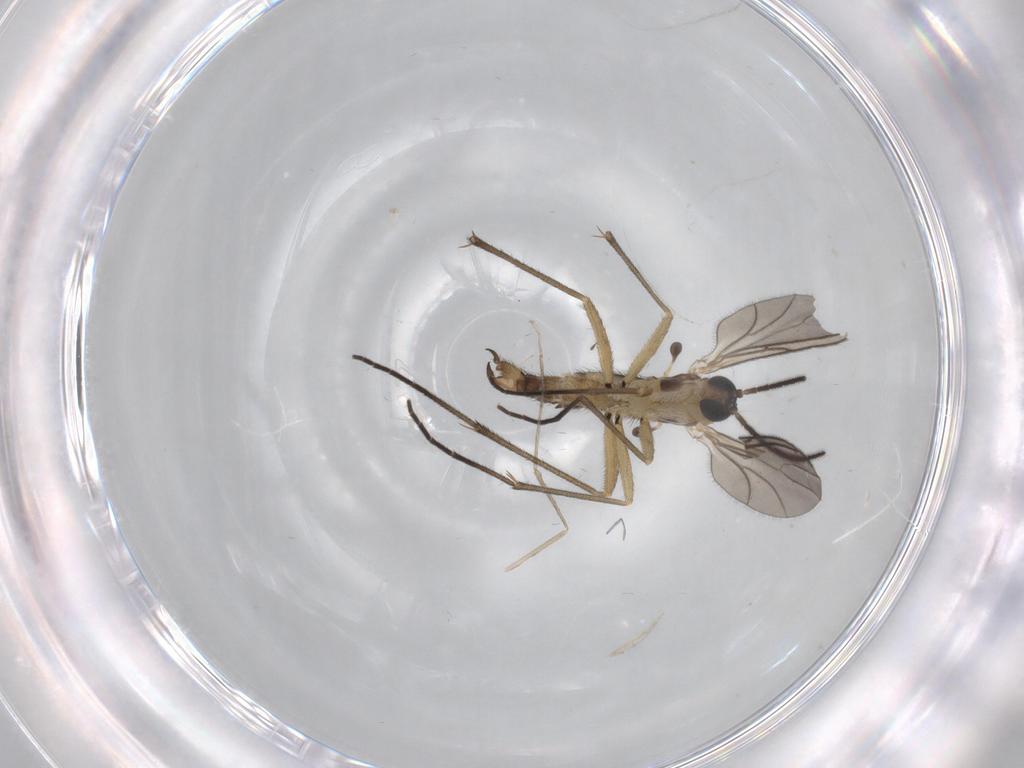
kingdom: Animalia
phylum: Arthropoda
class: Insecta
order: Diptera
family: Cecidomyiidae
